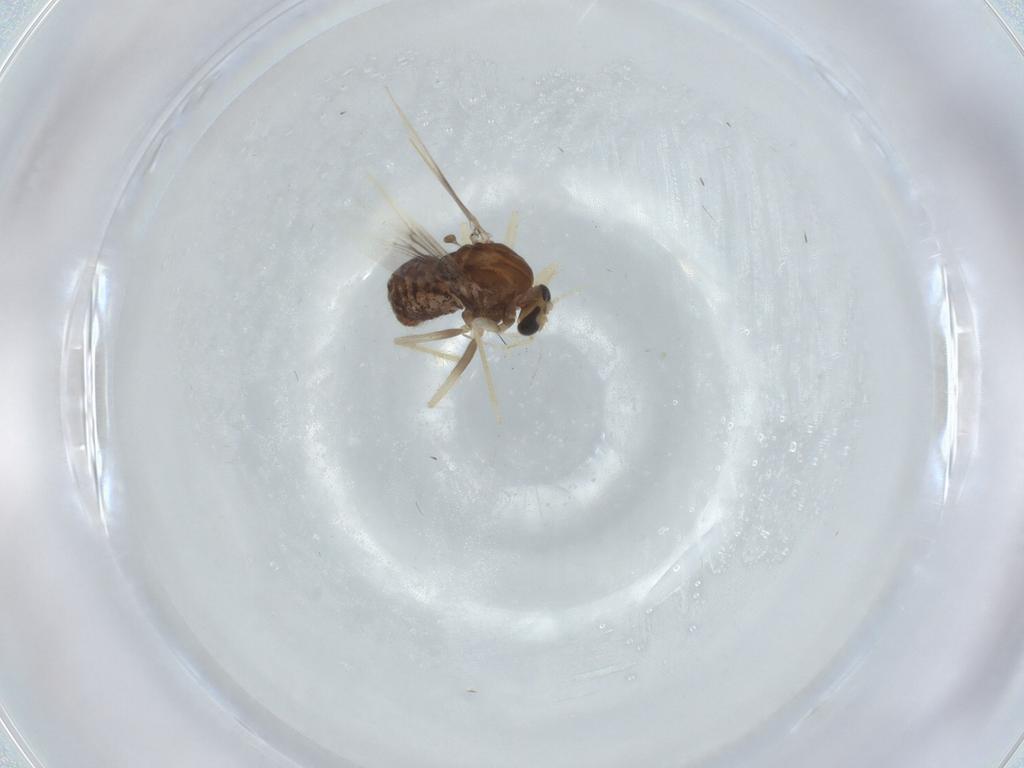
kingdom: Animalia
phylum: Arthropoda
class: Insecta
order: Diptera
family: Chironomidae
